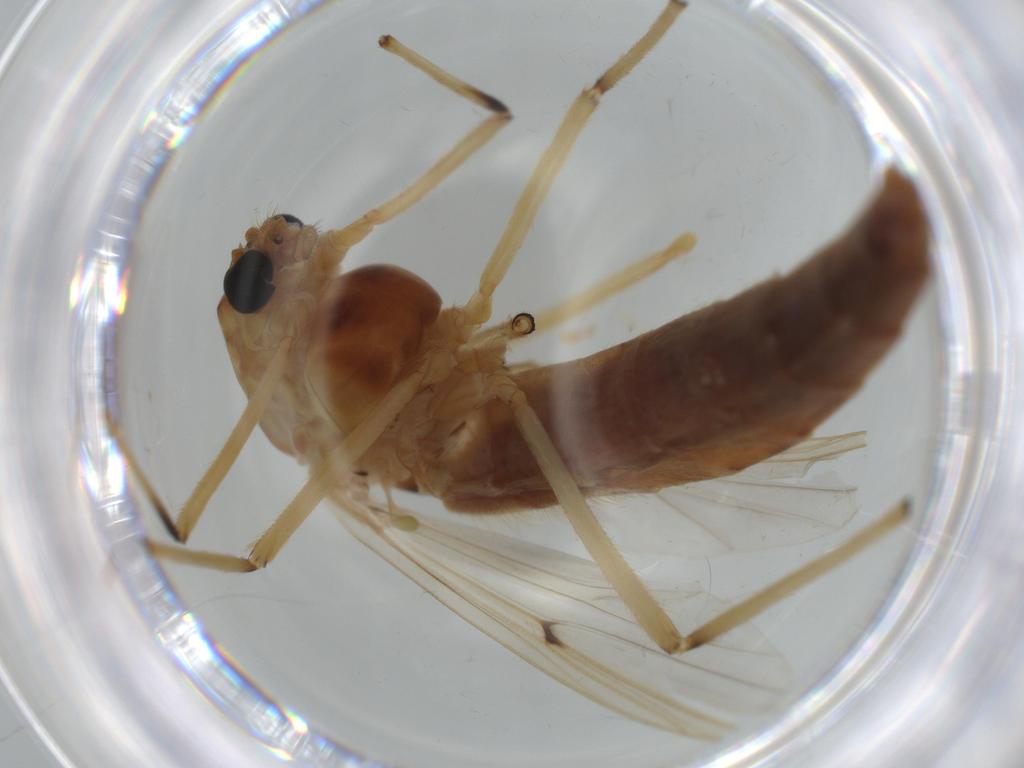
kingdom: Animalia
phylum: Arthropoda
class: Insecta
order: Diptera
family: Chironomidae
